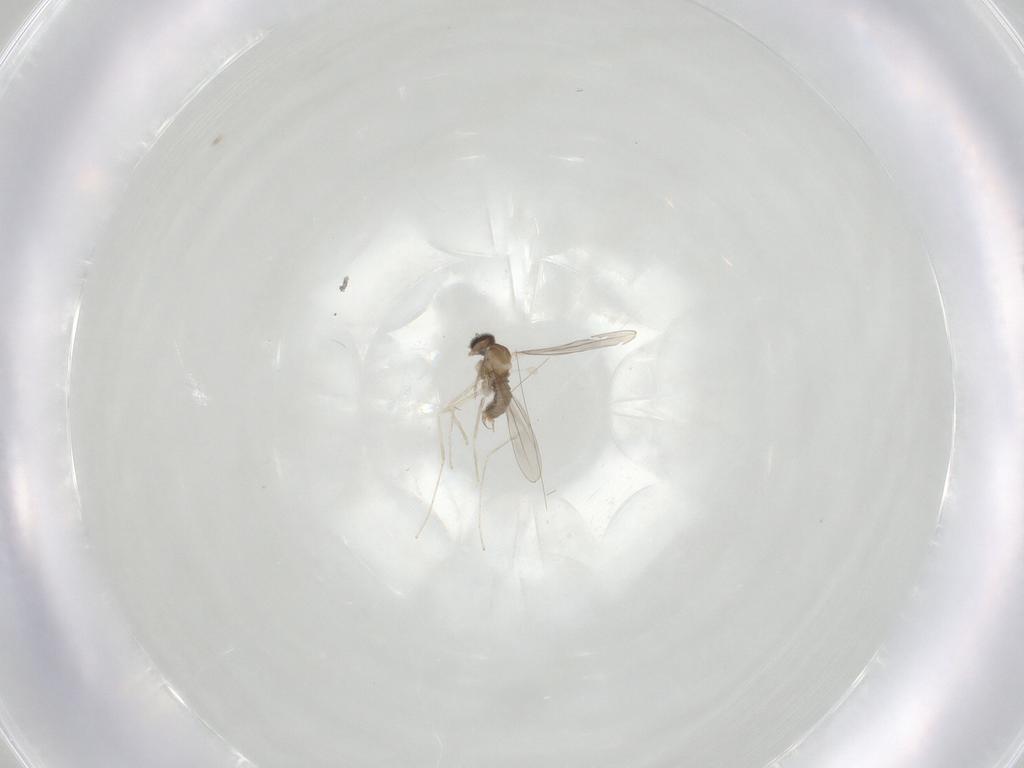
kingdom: Animalia
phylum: Arthropoda
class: Insecta
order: Diptera
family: Cecidomyiidae
